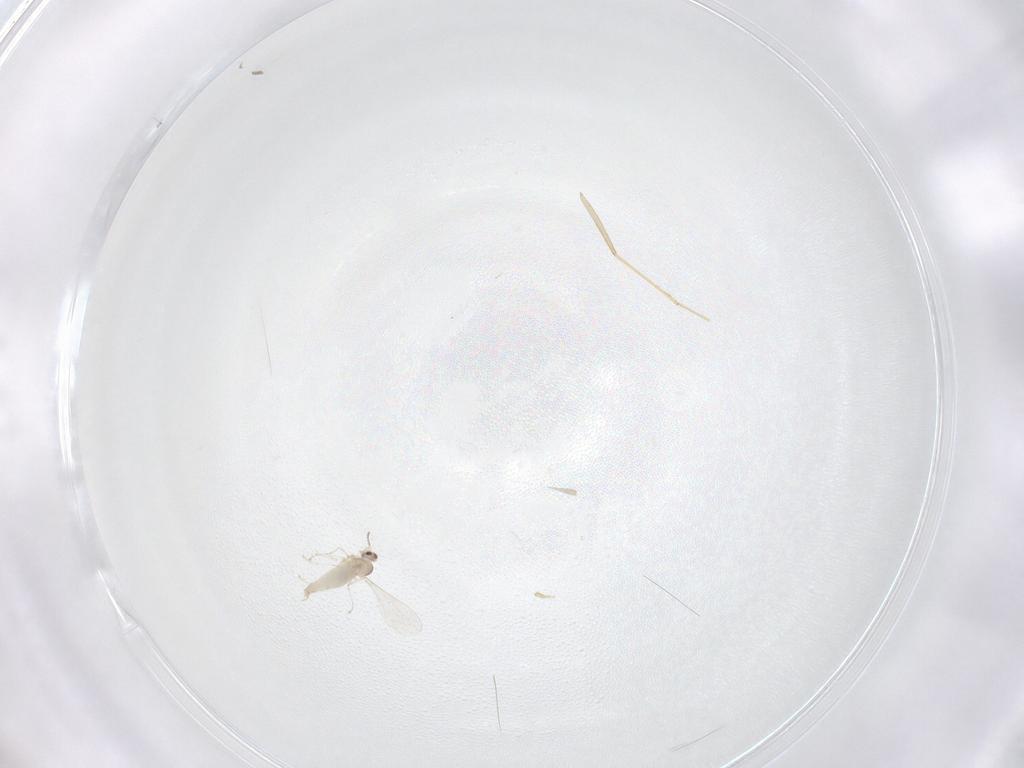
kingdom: Animalia
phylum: Arthropoda
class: Insecta
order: Diptera
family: Cecidomyiidae
